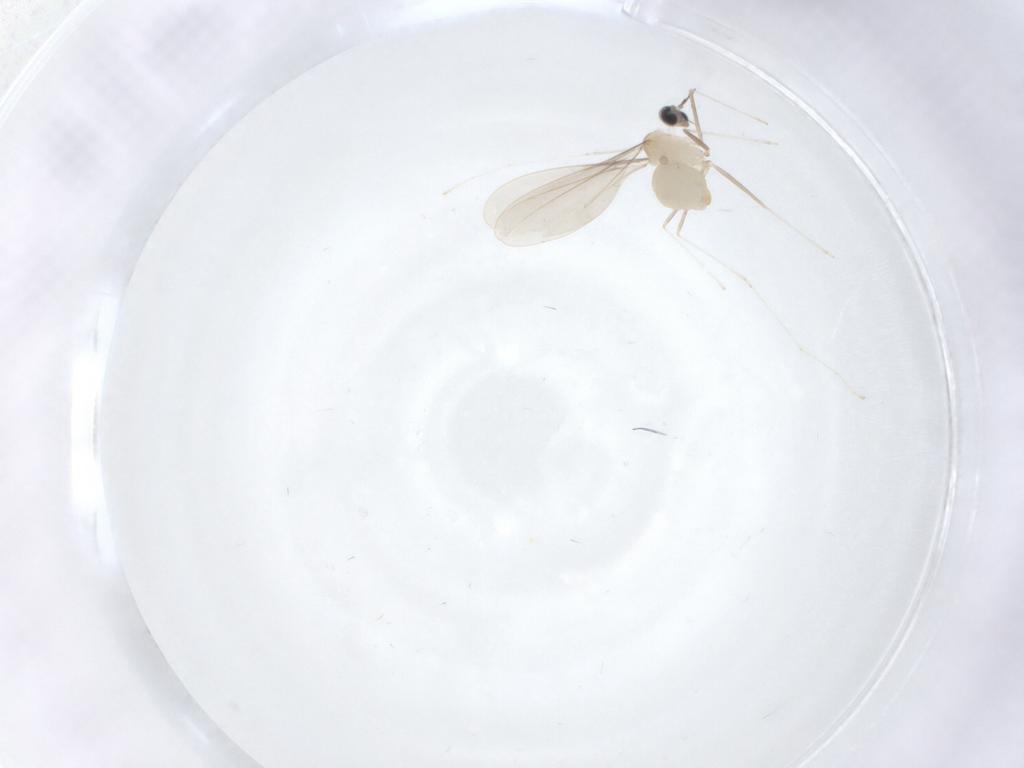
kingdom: Animalia
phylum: Arthropoda
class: Insecta
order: Diptera
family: Cecidomyiidae
